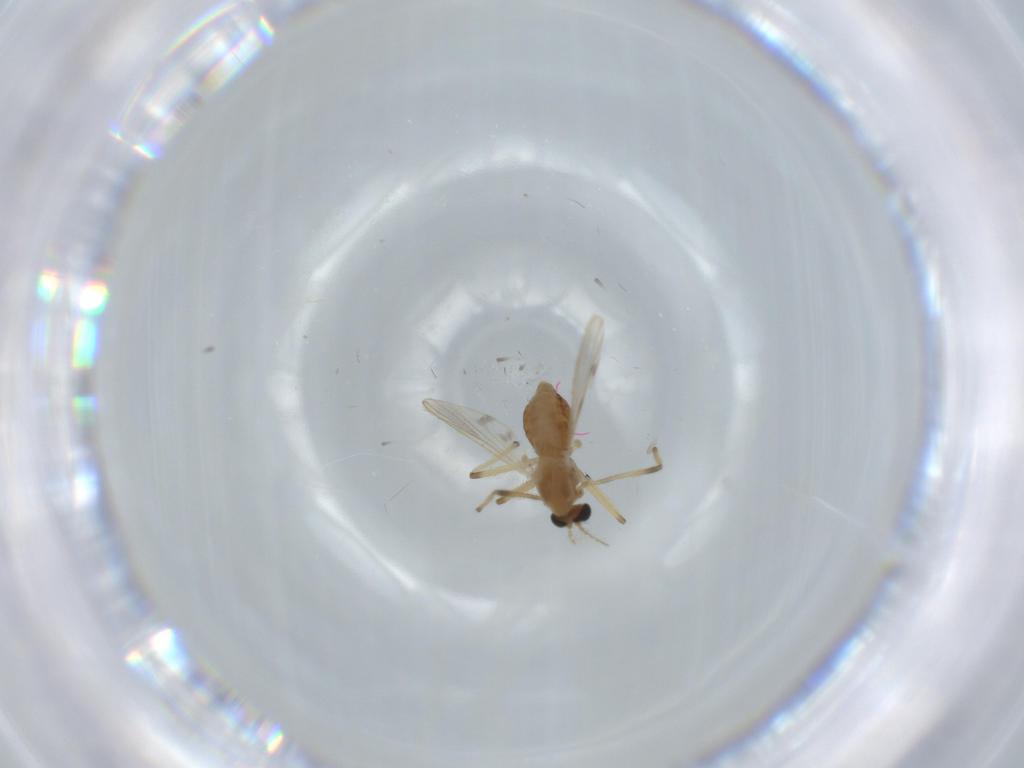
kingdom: Animalia
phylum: Arthropoda
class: Insecta
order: Diptera
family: Chironomidae
